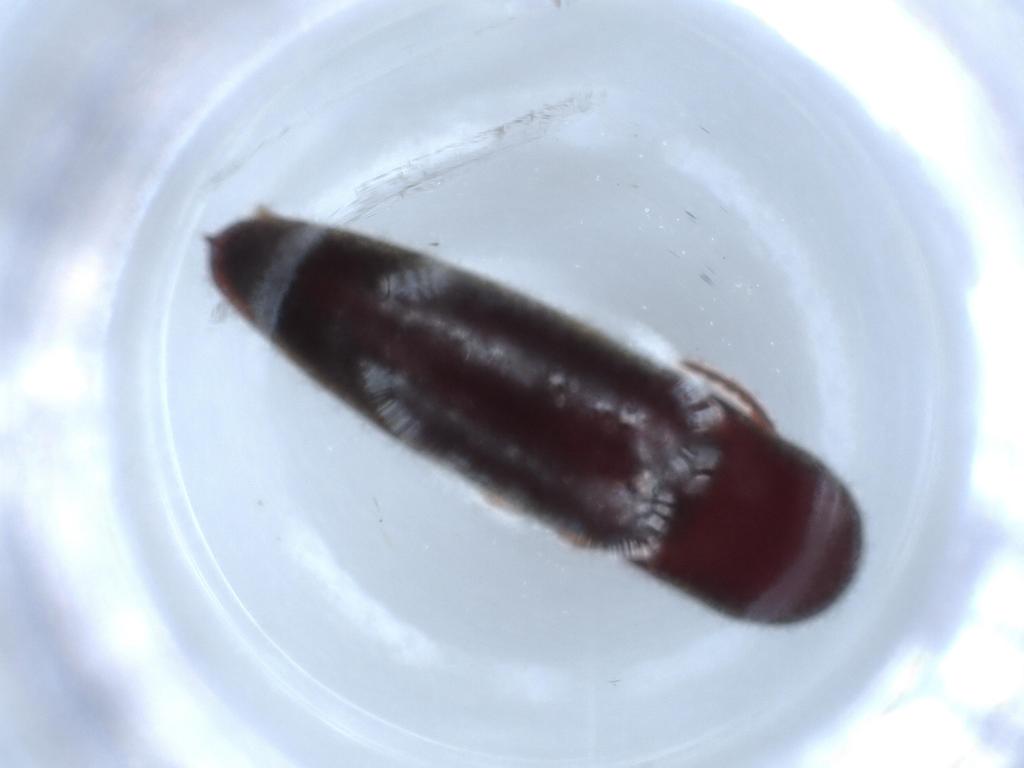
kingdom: Animalia
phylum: Arthropoda
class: Insecta
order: Coleoptera
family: Eucnemidae
